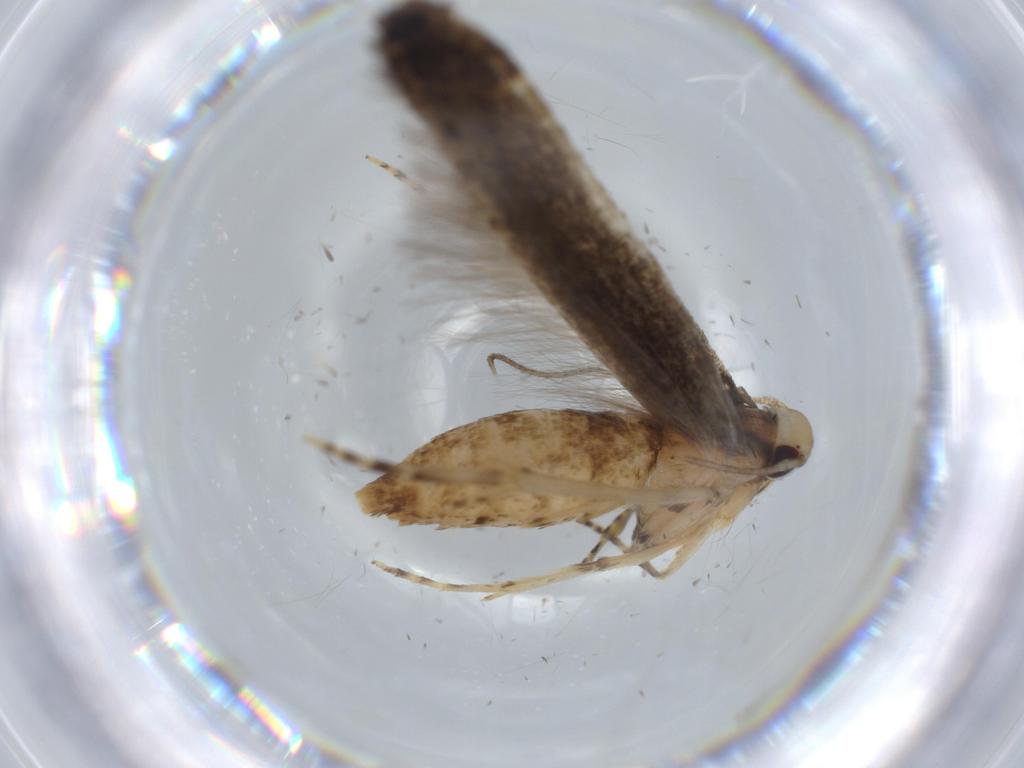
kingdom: Animalia
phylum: Arthropoda
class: Insecta
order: Lepidoptera
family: Cosmopterigidae
